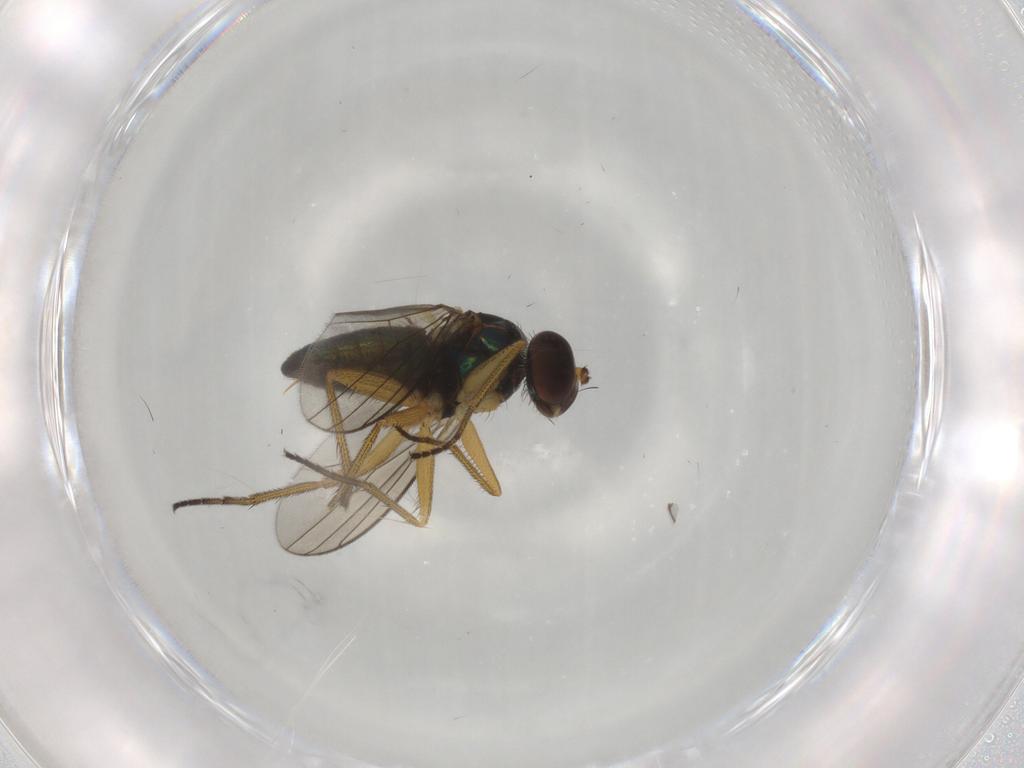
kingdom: Animalia
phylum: Arthropoda
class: Insecta
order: Diptera
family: Chironomidae
